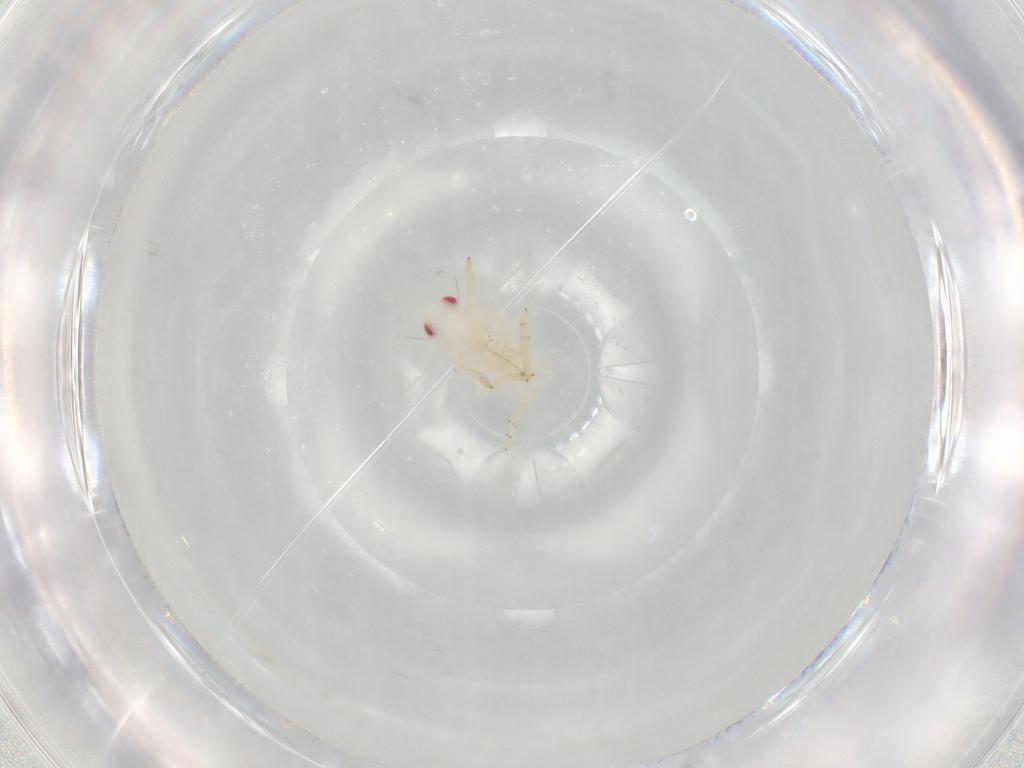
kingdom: Animalia
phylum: Arthropoda
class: Insecta
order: Hemiptera
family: Tropiduchidae
